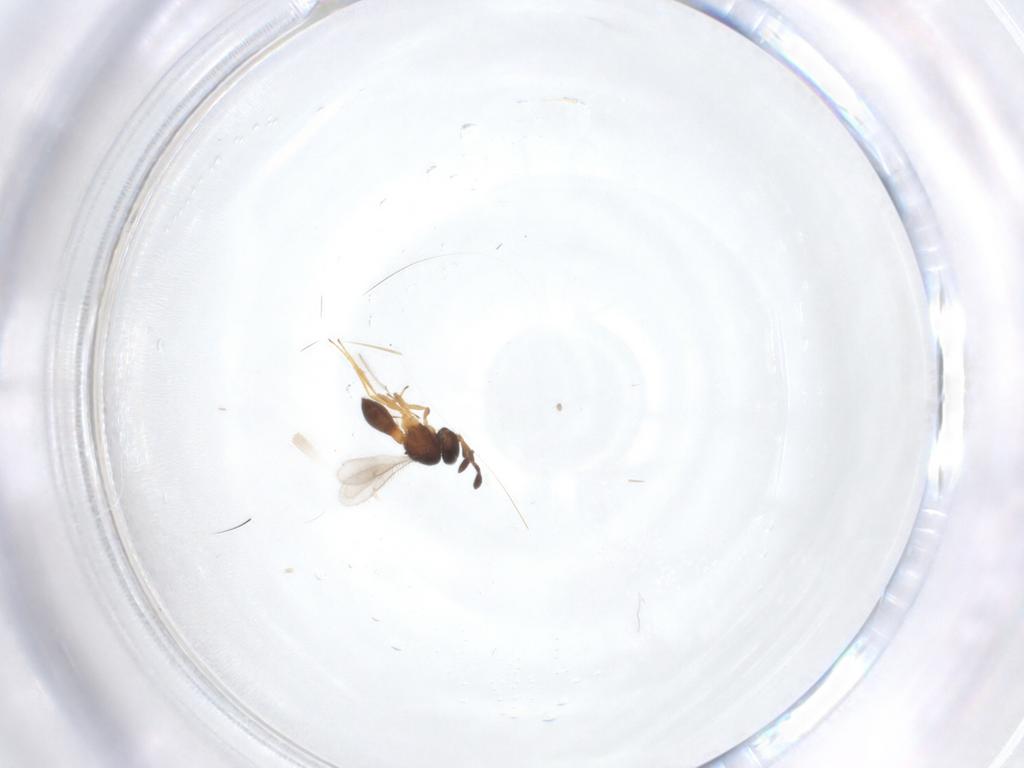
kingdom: Animalia
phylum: Arthropoda
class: Insecta
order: Hymenoptera
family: Scelionidae
